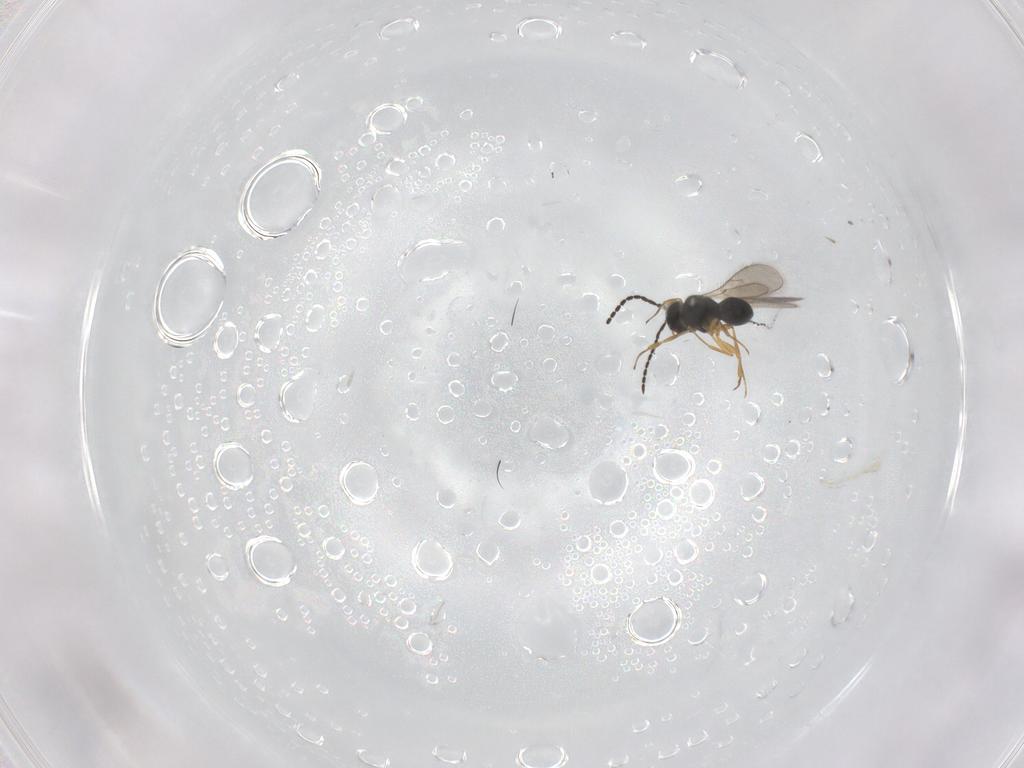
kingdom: Animalia
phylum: Arthropoda
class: Insecta
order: Hymenoptera
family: Scelionidae
